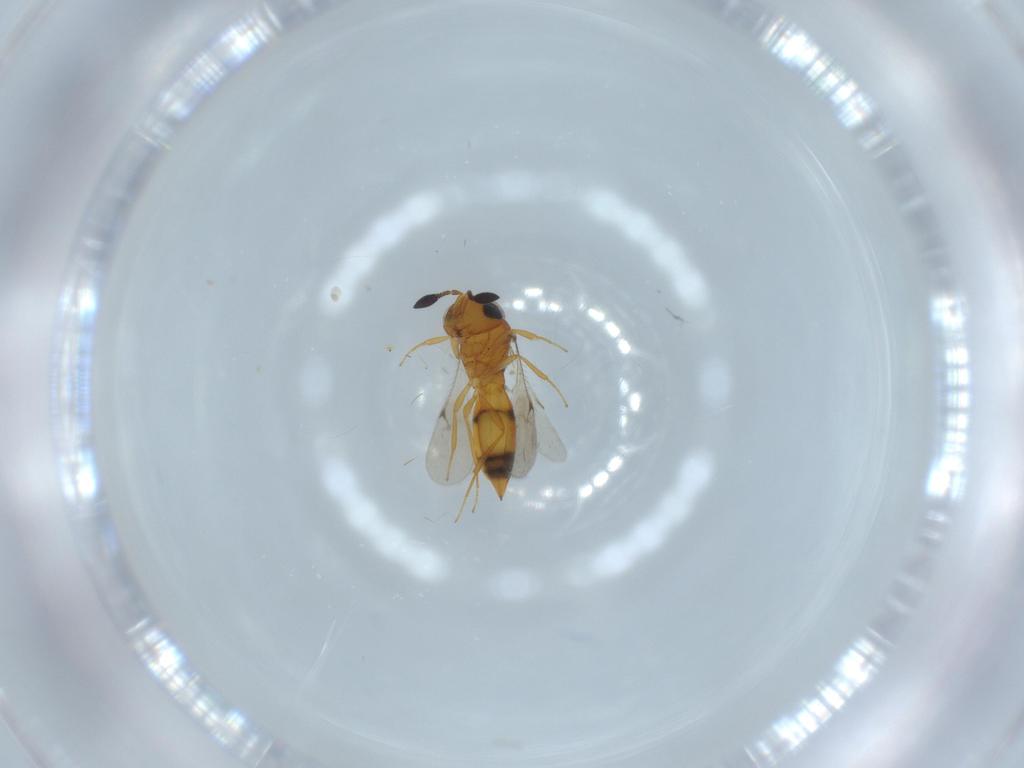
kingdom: Animalia
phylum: Arthropoda
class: Insecta
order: Hymenoptera
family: Scelionidae
